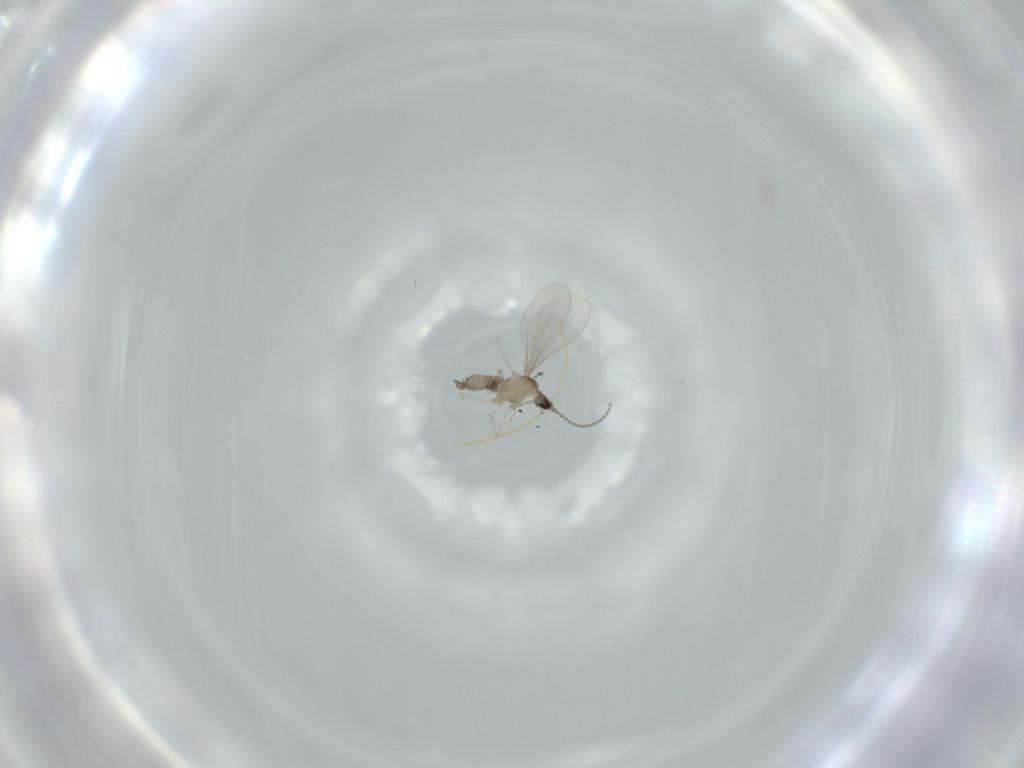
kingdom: Animalia
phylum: Arthropoda
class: Insecta
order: Diptera
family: Cecidomyiidae
